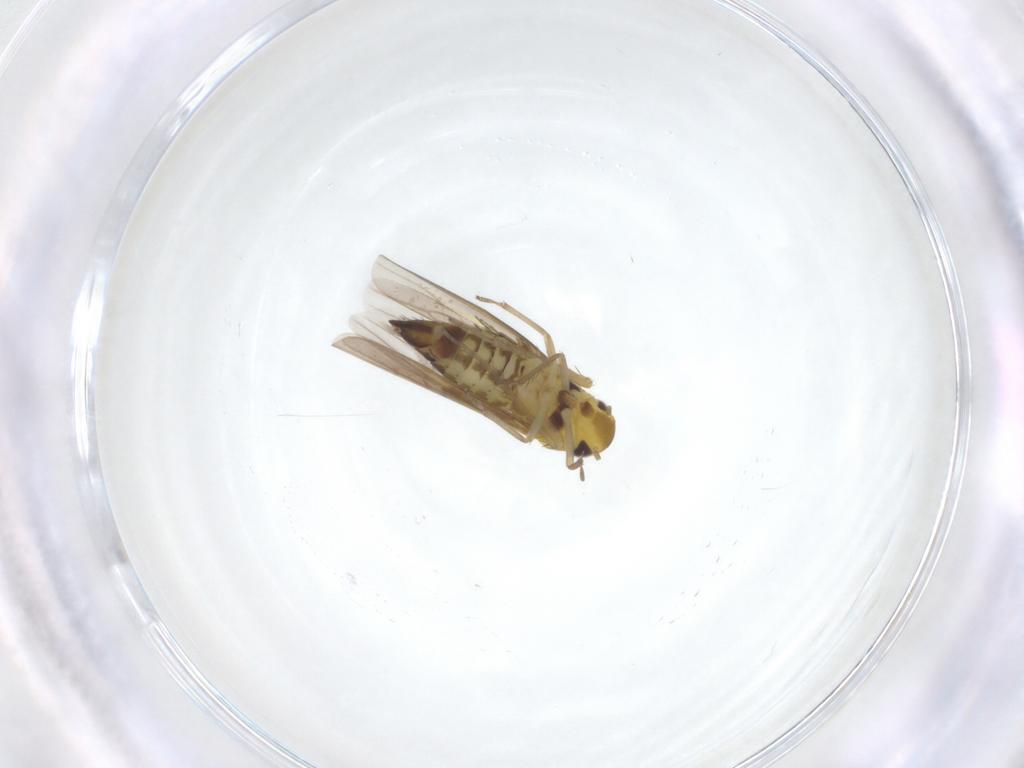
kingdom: Animalia
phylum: Arthropoda
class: Insecta
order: Hemiptera
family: Cicadellidae
